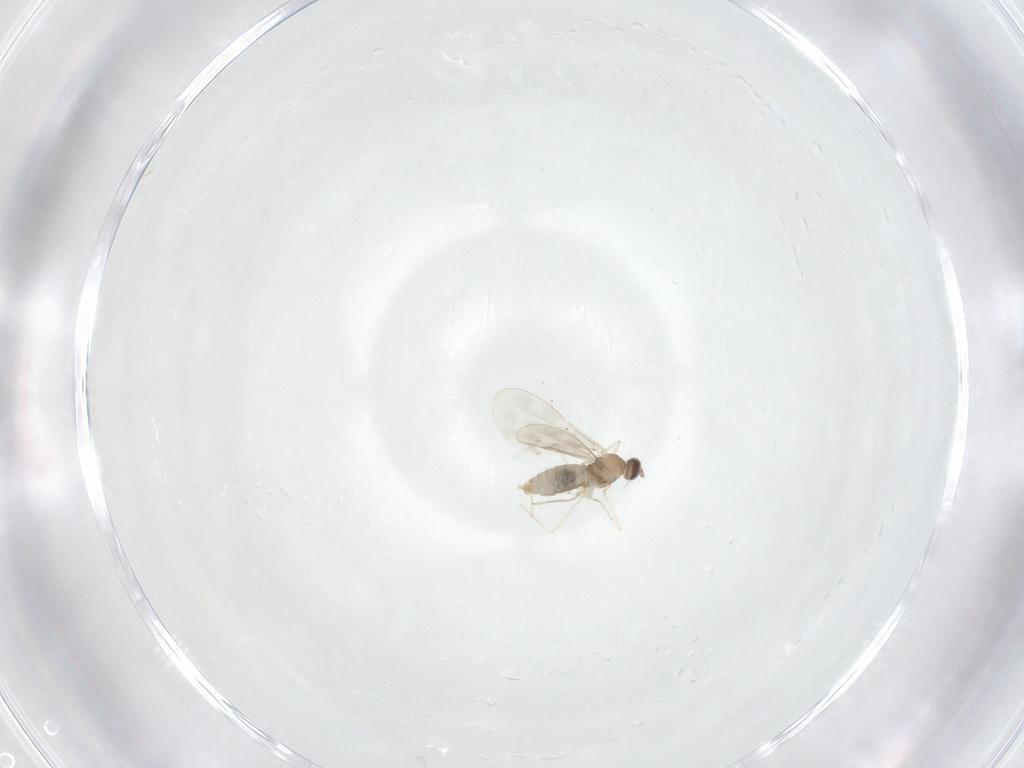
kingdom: Animalia
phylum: Arthropoda
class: Insecta
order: Diptera
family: Cecidomyiidae
